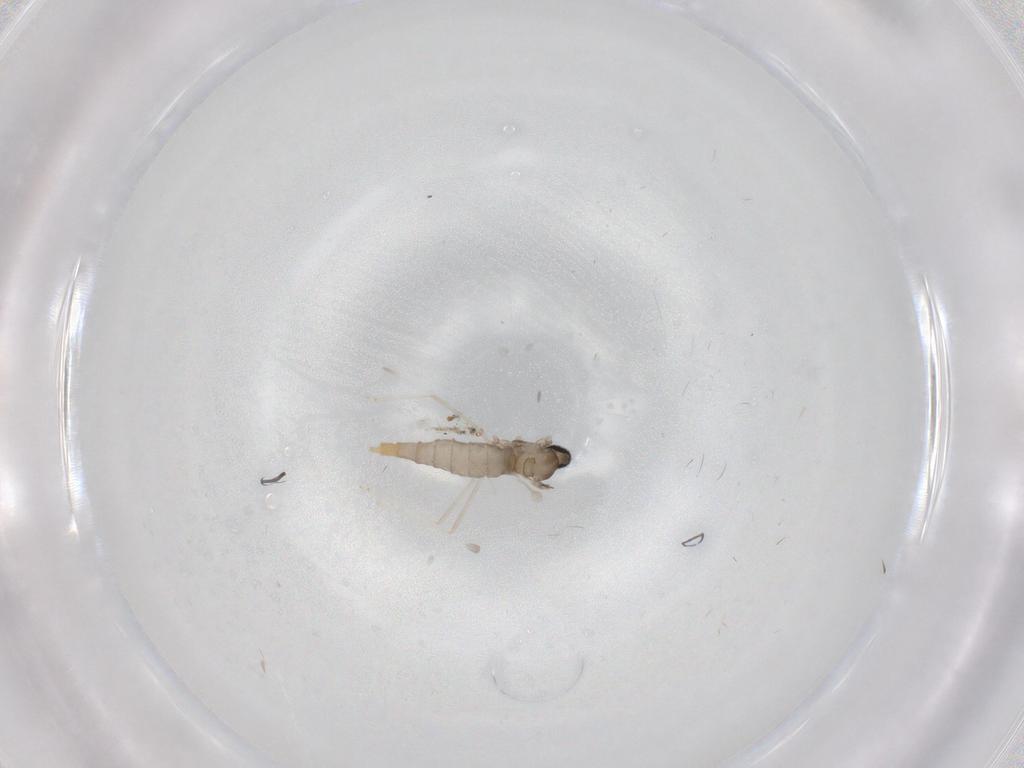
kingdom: Animalia
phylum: Arthropoda
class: Insecta
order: Diptera
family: Cecidomyiidae
